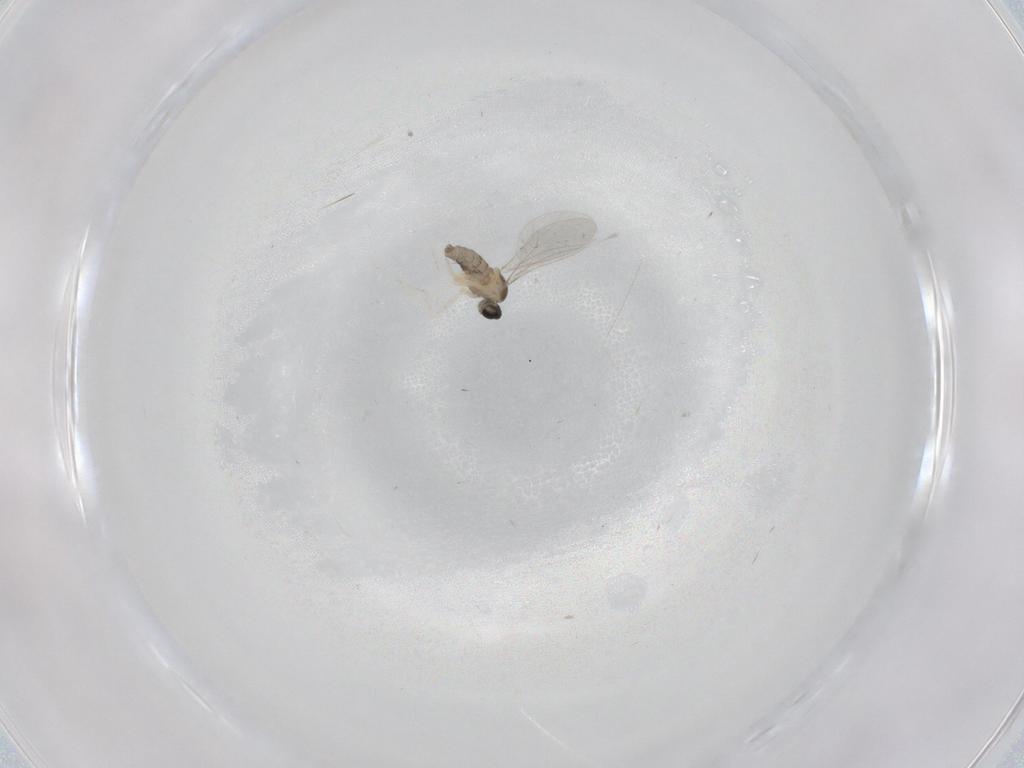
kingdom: Animalia
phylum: Arthropoda
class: Insecta
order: Diptera
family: Cecidomyiidae
